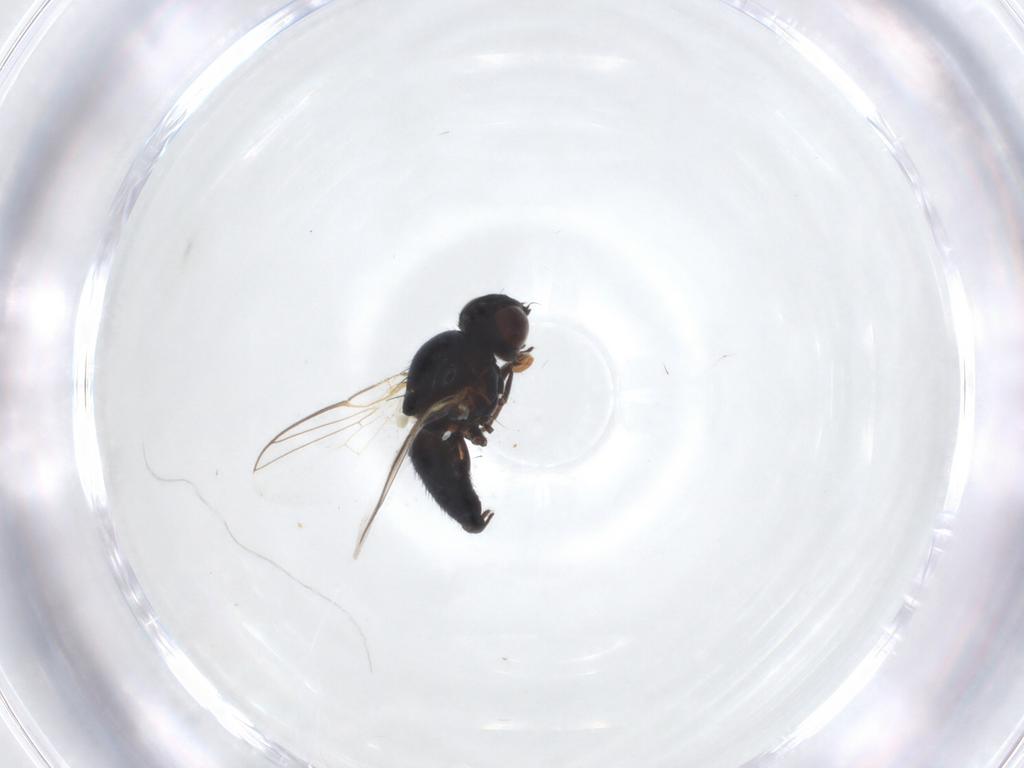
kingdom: Animalia
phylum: Arthropoda
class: Insecta
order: Diptera
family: Agromyzidae
